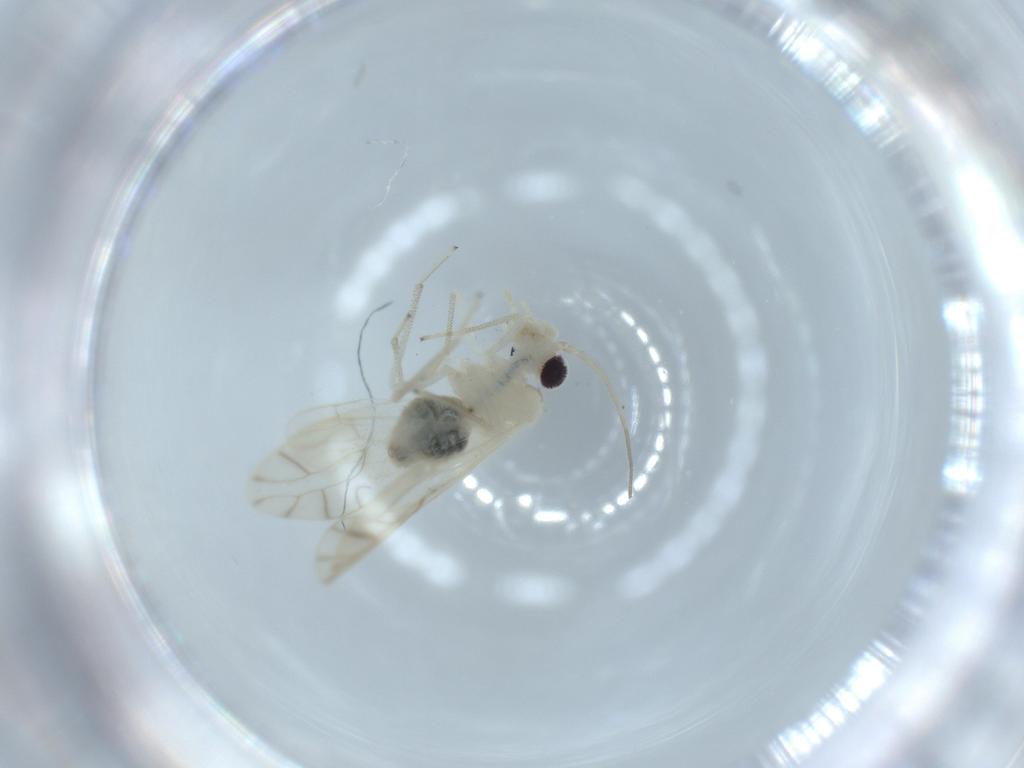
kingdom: Animalia
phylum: Arthropoda
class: Insecta
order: Psocodea
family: Caeciliusidae
